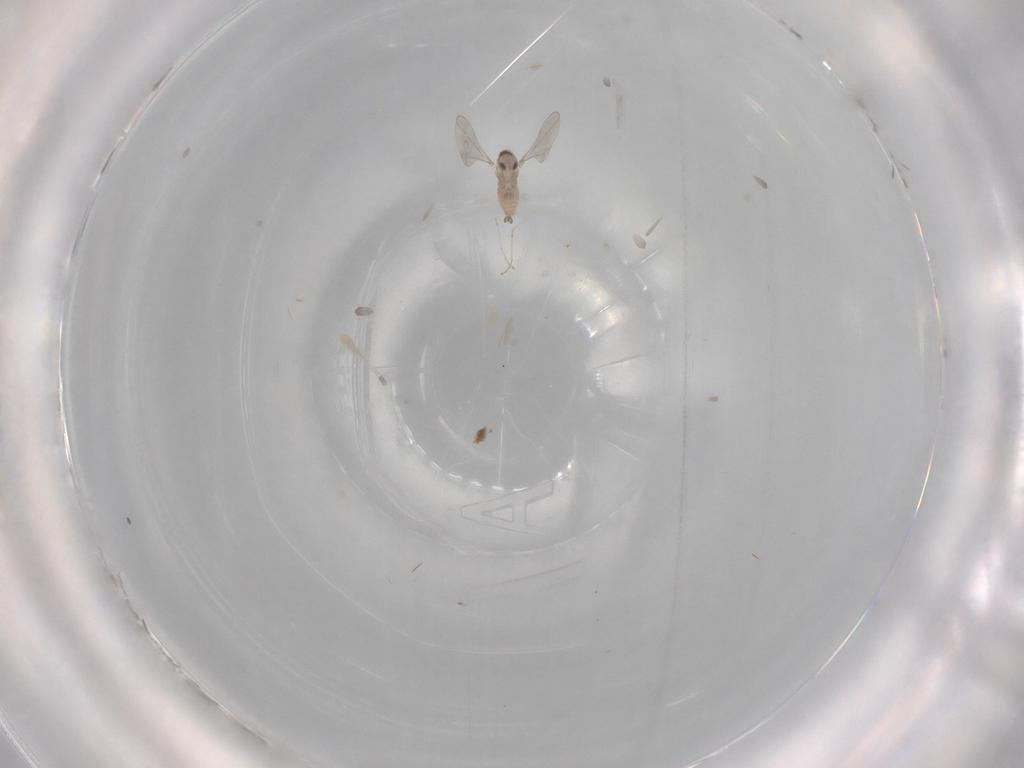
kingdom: Animalia
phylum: Arthropoda
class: Insecta
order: Diptera
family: Cecidomyiidae
